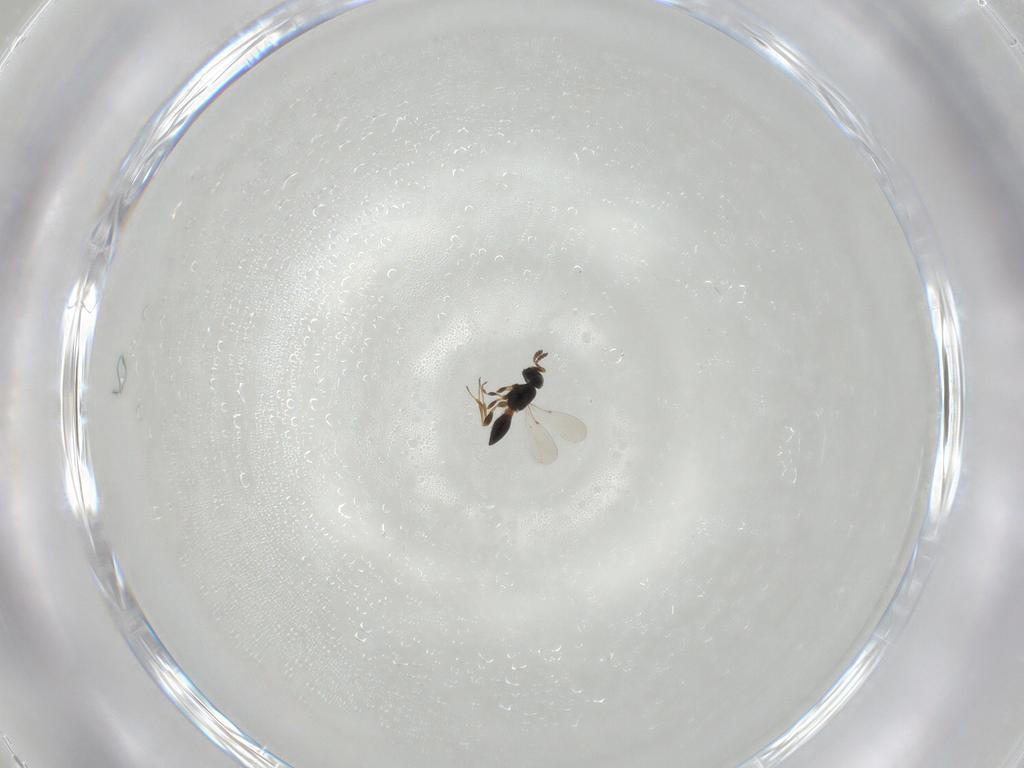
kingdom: Animalia
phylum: Arthropoda
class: Insecta
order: Hymenoptera
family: Platygastridae
